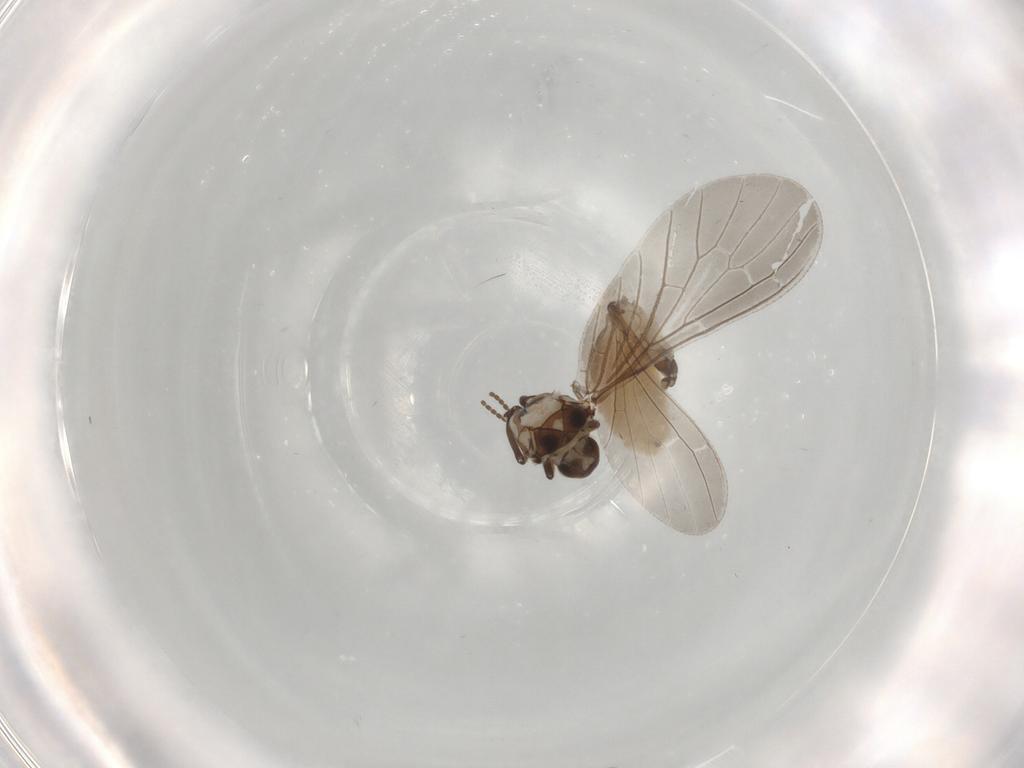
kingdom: Animalia
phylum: Arthropoda
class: Insecta
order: Neuroptera
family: Coniopterygidae
